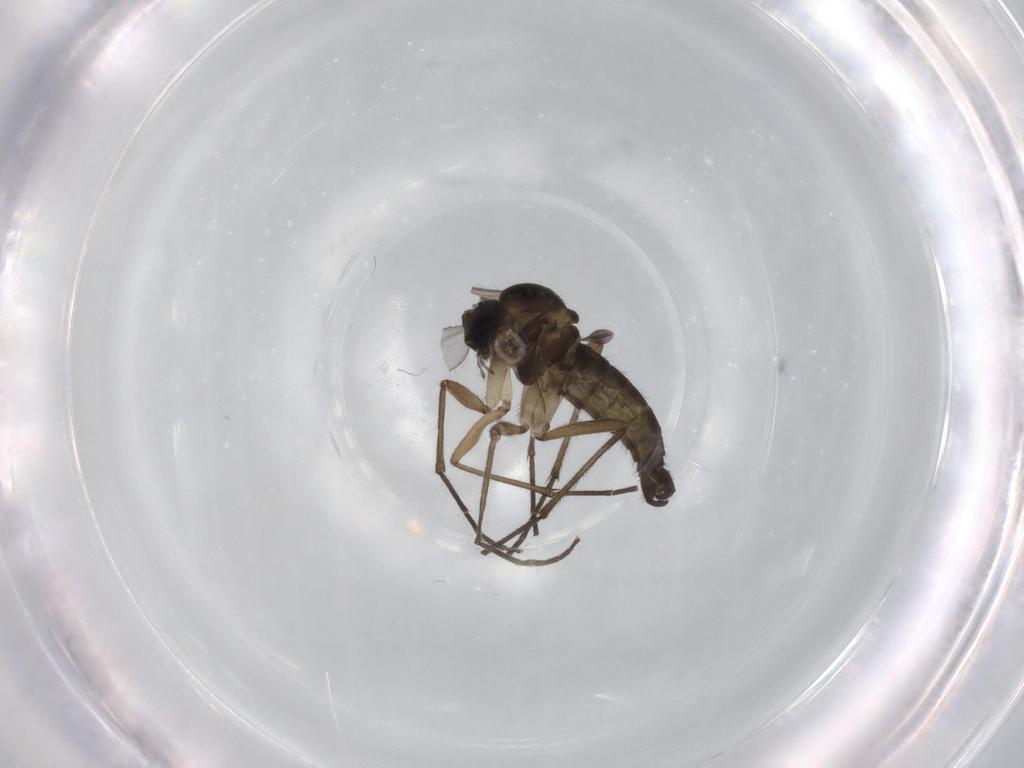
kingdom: Animalia
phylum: Arthropoda
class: Insecta
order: Diptera
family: Sciaridae
